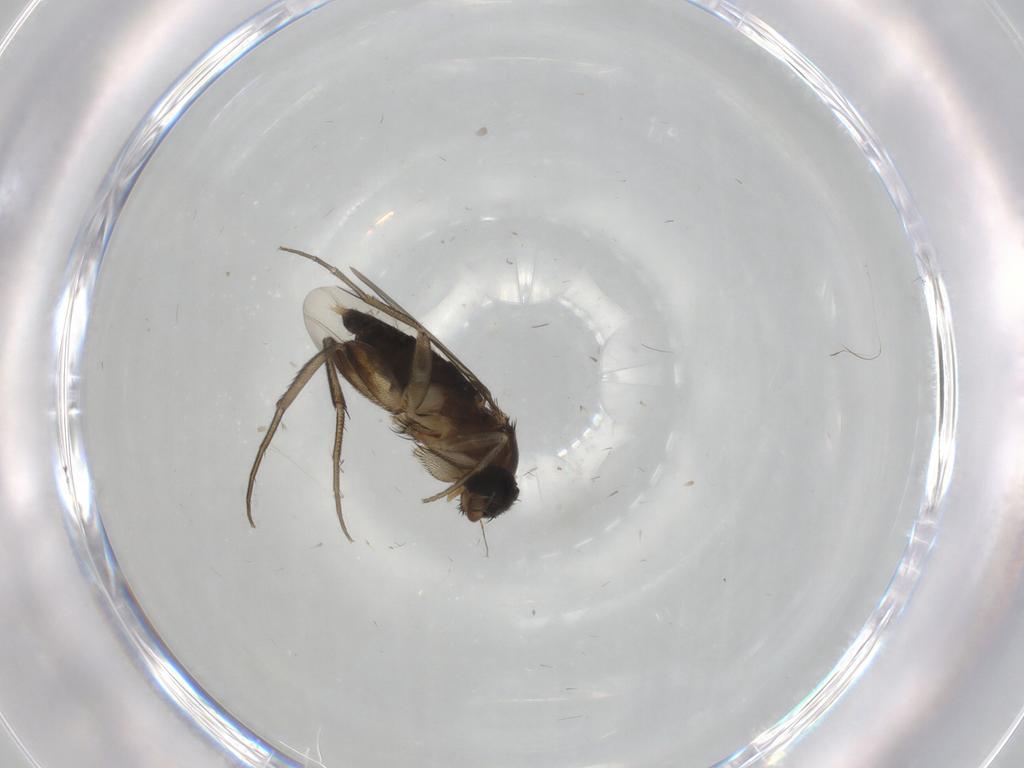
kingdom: Animalia
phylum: Arthropoda
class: Insecta
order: Diptera
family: Phoridae
